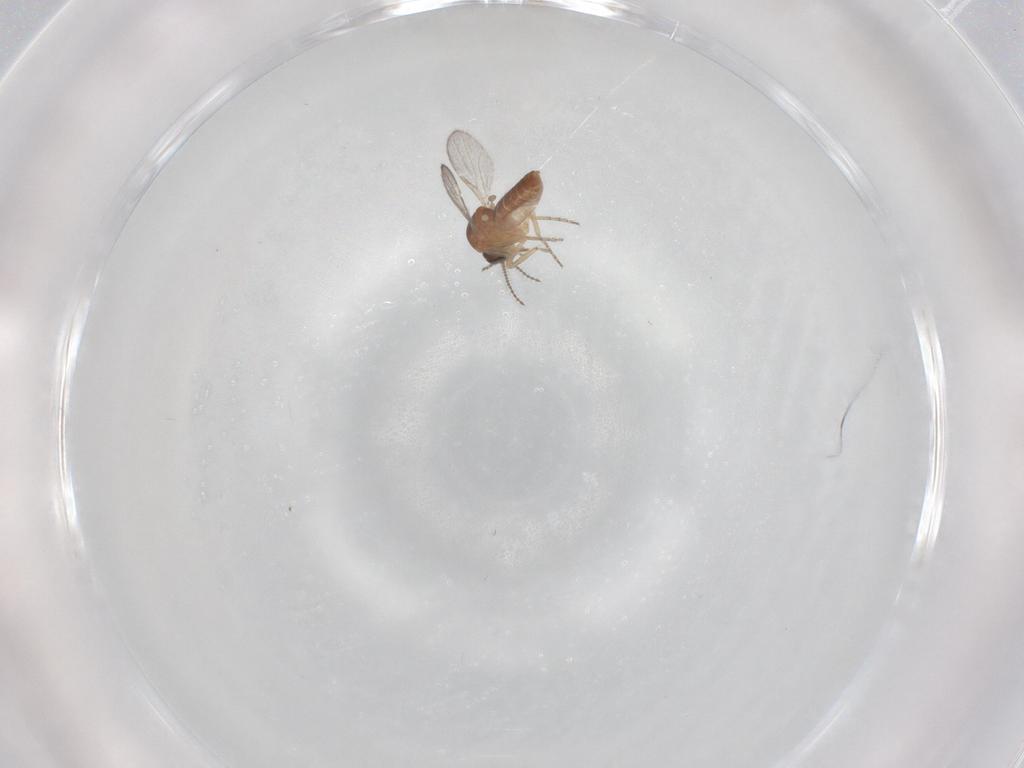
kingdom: Animalia
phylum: Arthropoda
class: Insecta
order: Diptera
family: Ceratopogonidae
